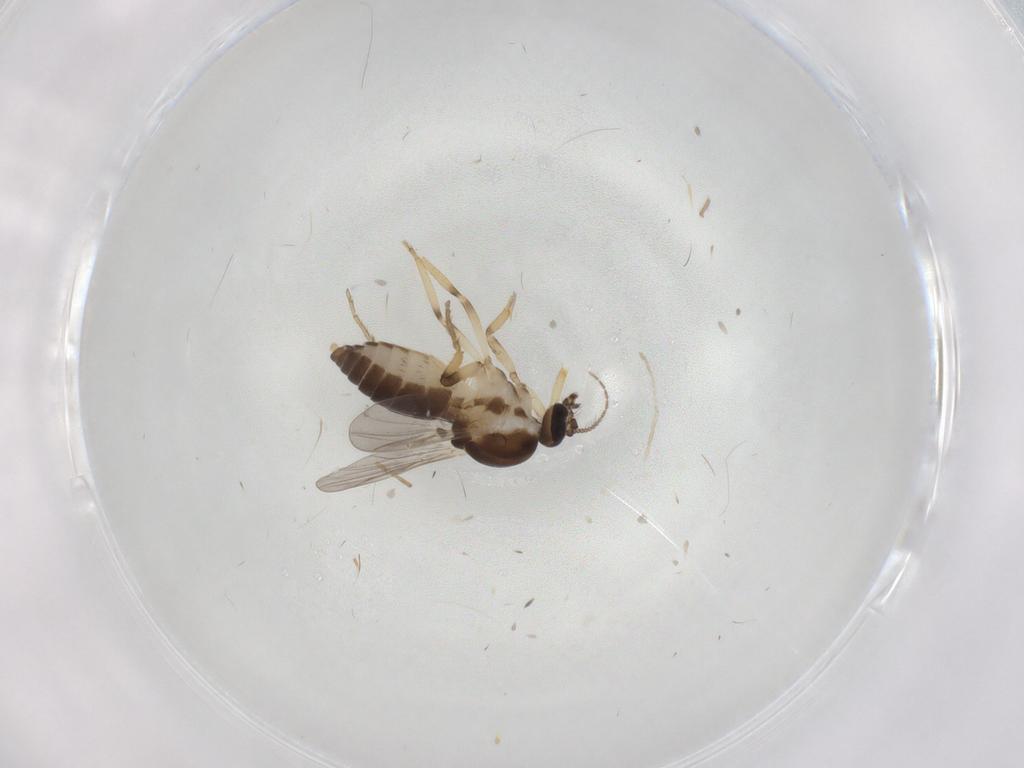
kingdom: Animalia
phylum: Arthropoda
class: Insecta
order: Diptera
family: Ceratopogonidae
